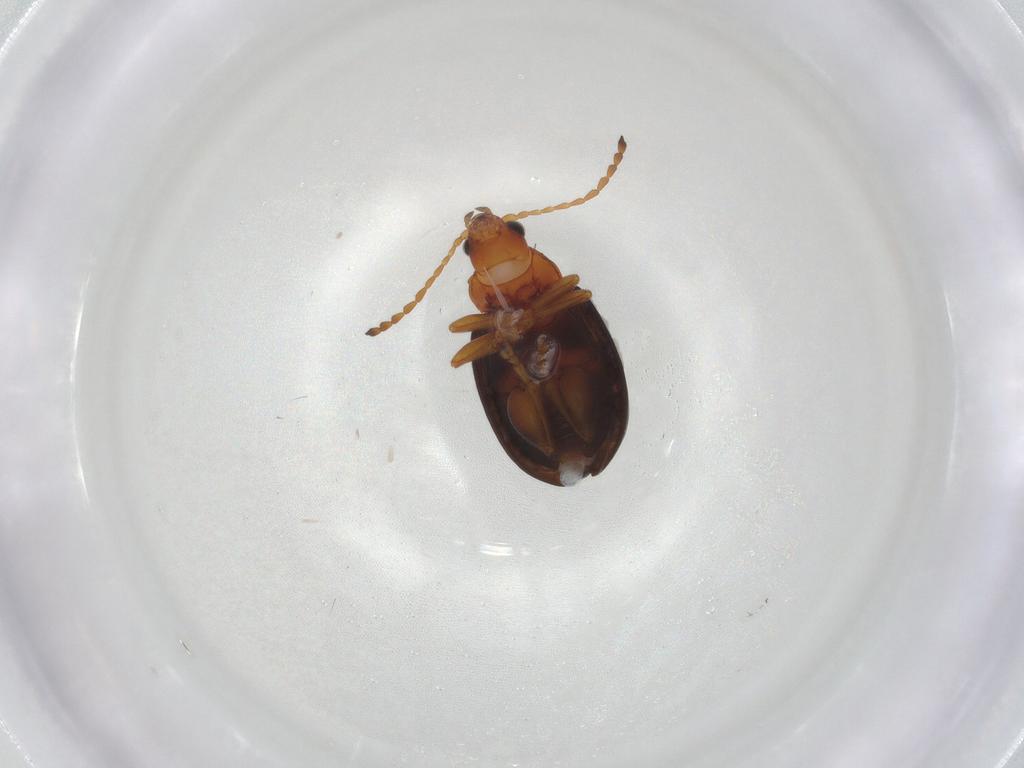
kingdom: Animalia
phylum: Arthropoda
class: Insecta
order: Coleoptera
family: Chrysomelidae
